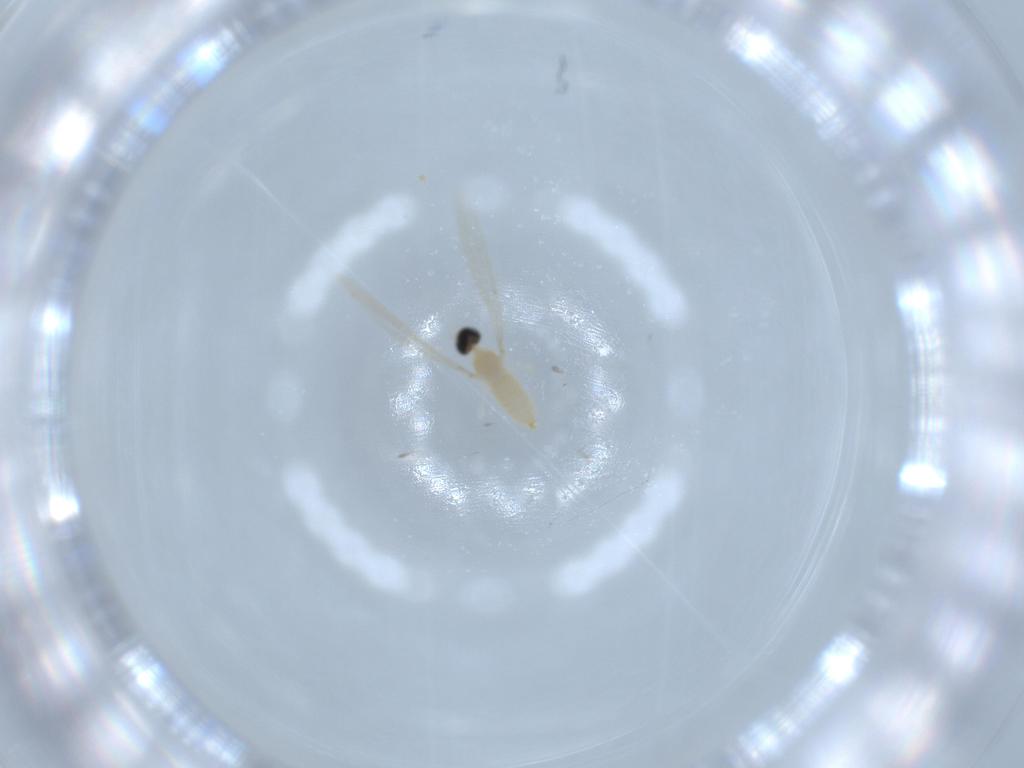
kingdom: Animalia
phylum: Arthropoda
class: Insecta
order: Diptera
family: Cecidomyiidae
